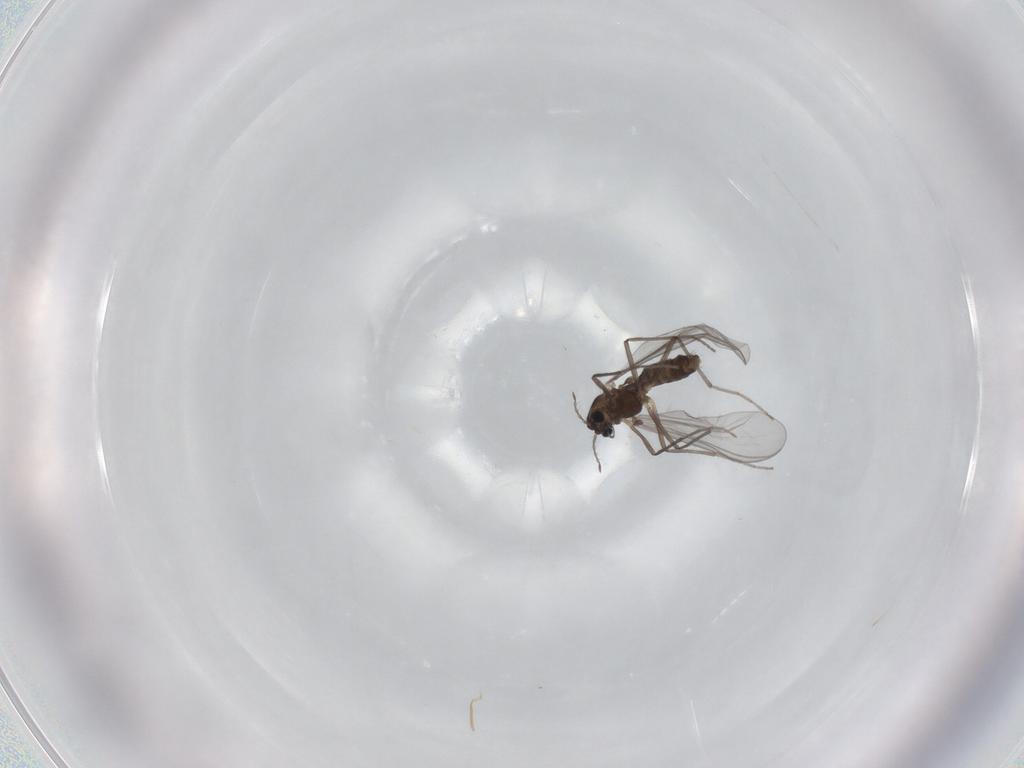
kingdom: Animalia
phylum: Arthropoda
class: Insecta
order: Diptera
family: Chironomidae
